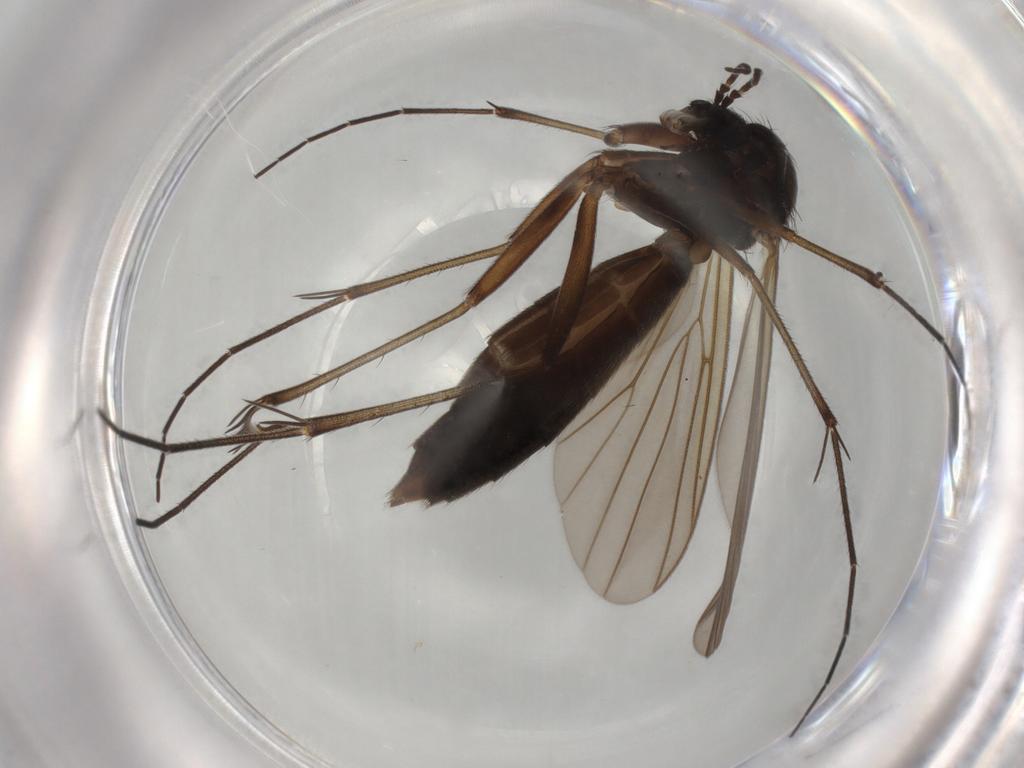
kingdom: Animalia
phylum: Arthropoda
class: Insecta
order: Diptera
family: Mycetophilidae
